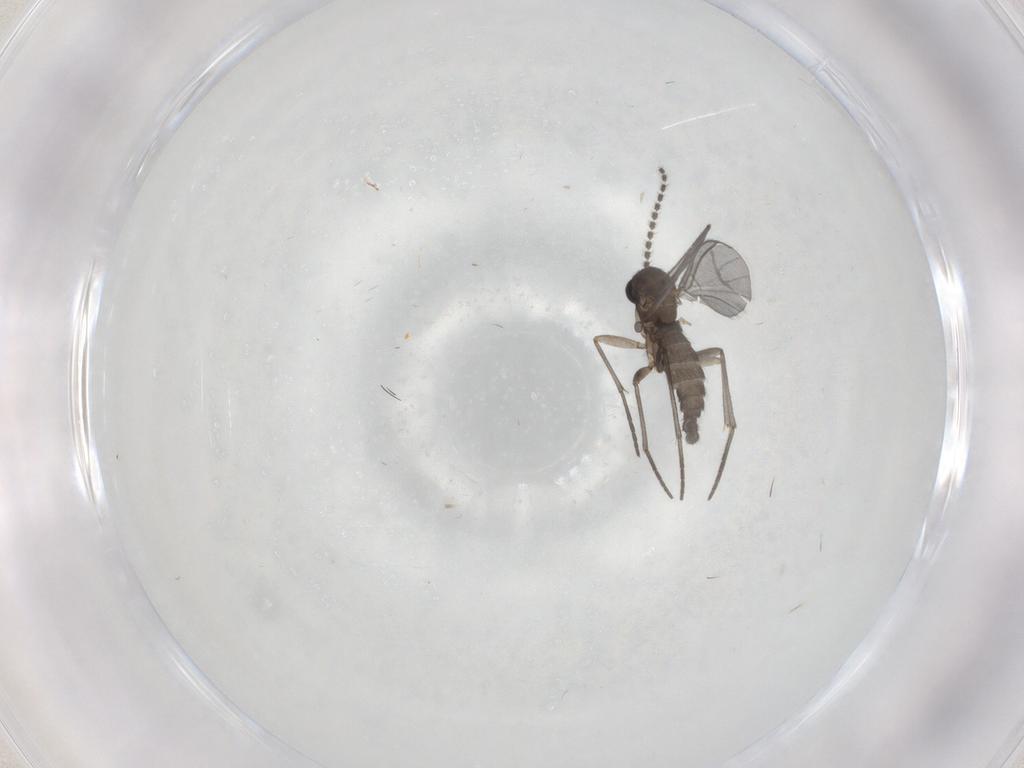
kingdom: Animalia
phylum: Arthropoda
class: Insecta
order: Diptera
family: Sciaridae
